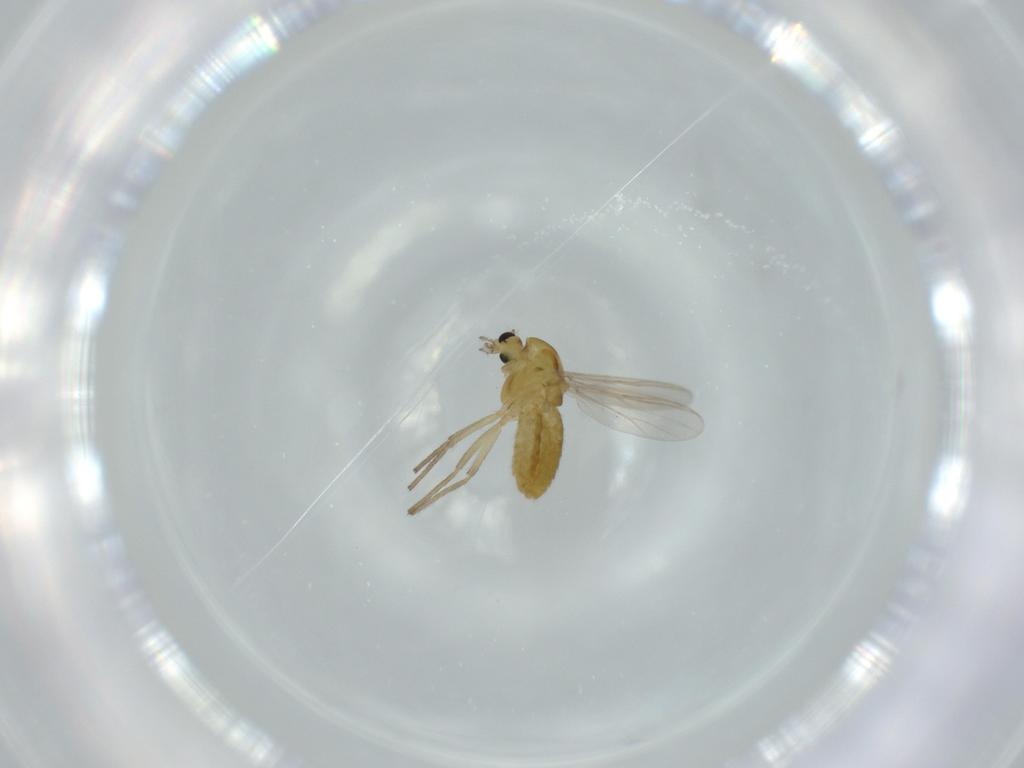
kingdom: Animalia
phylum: Arthropoda
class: Insecta
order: Diptera
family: Chironomidae
